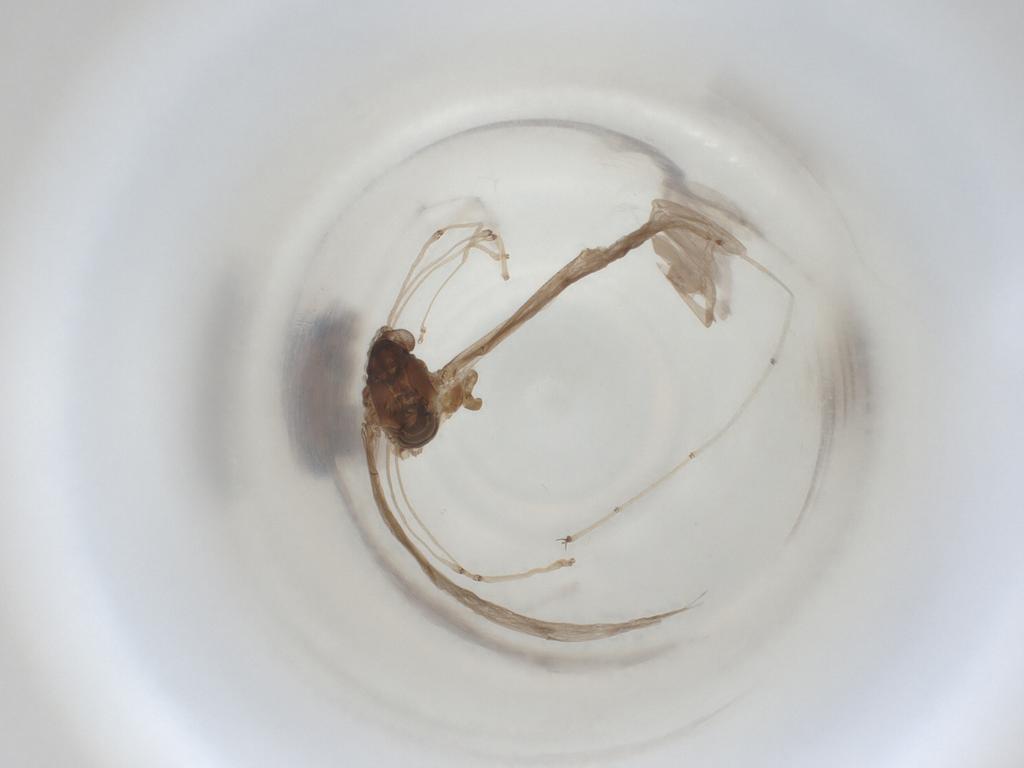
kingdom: Animalia
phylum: Arthropoda
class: Insecta
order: Diptera
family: Cecidomyiidae
